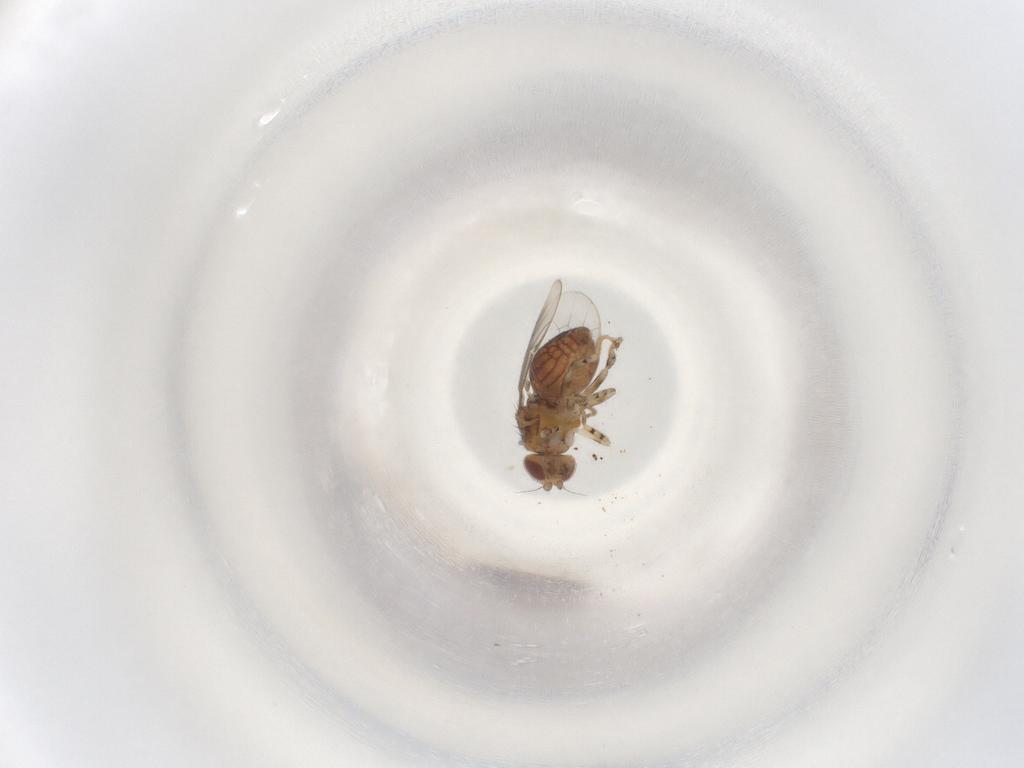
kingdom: Animalia
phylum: Arthropoda
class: Insecta
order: Diptera
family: Chloropidae
